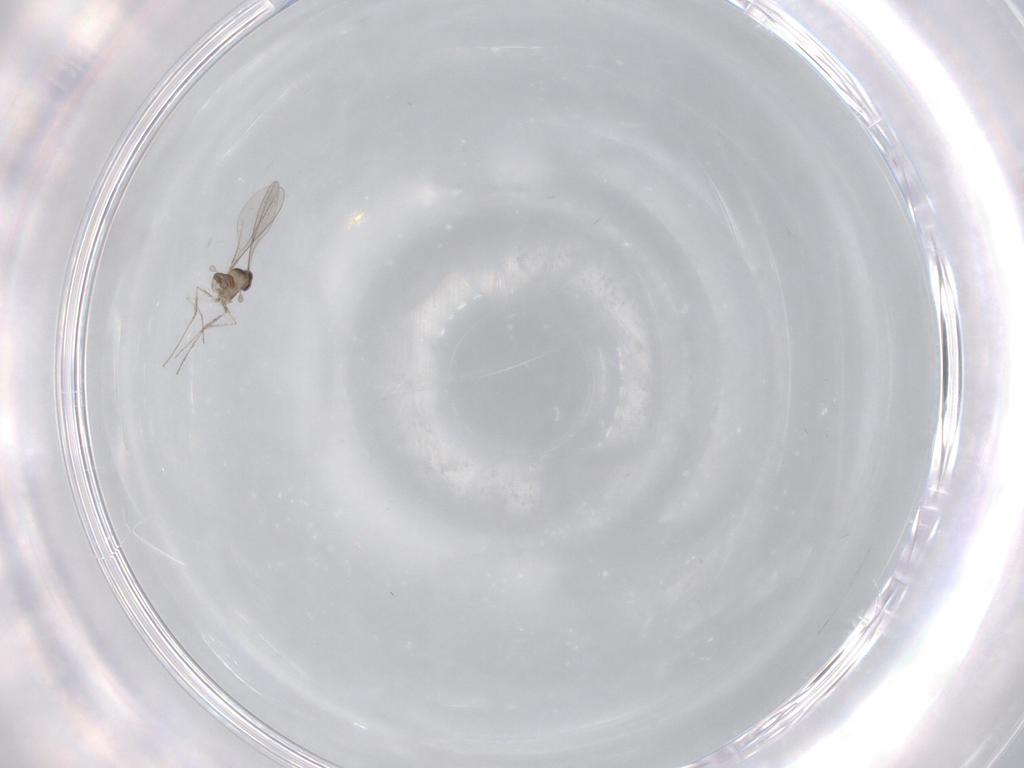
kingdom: Animalia
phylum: Arthropoda
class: Insecta
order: Diptera
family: Cecidomyiidae
